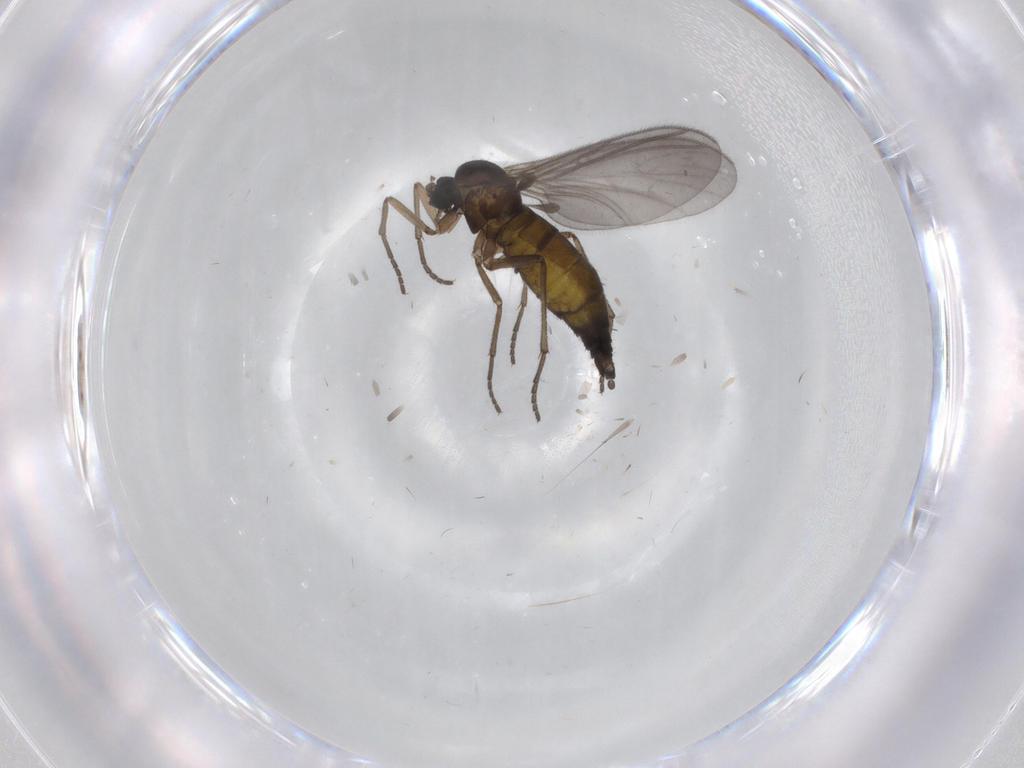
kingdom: Animalia
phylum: Arthropoda
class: Insecta
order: Diptera
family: Sciaridae
